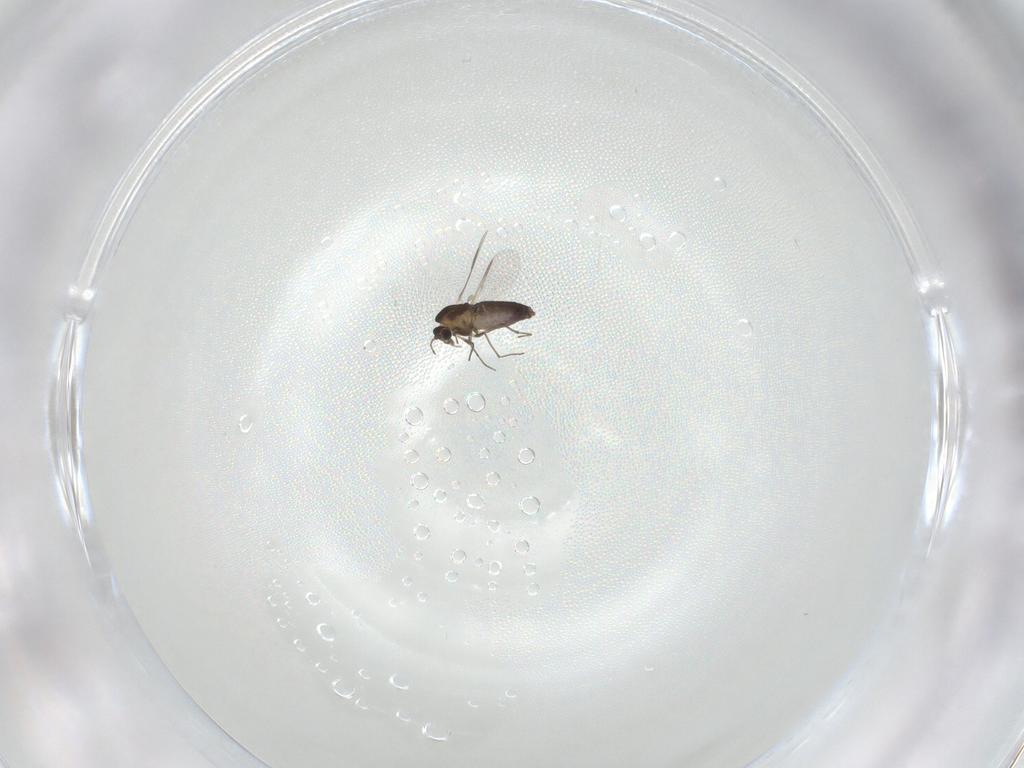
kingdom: Animalia
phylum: Arthropoda
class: Insecta
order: Diptera
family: Chironomidae
